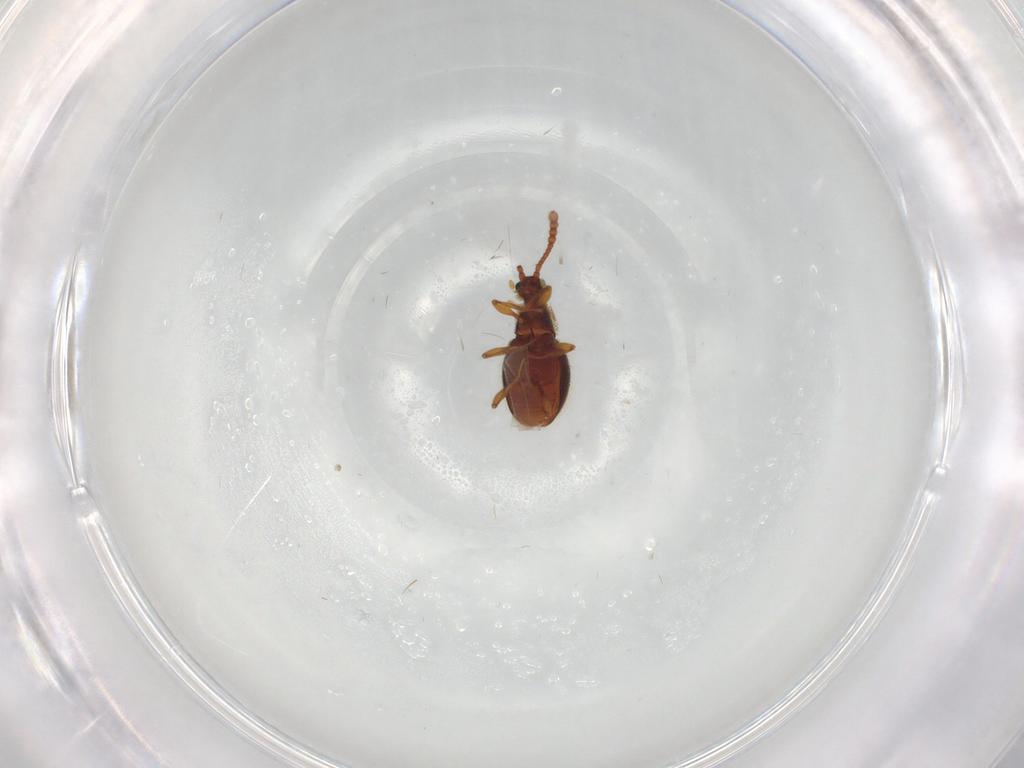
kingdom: Animalia
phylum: Arthropoda
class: Insecta
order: Coleoptera
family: Staphylinidae
